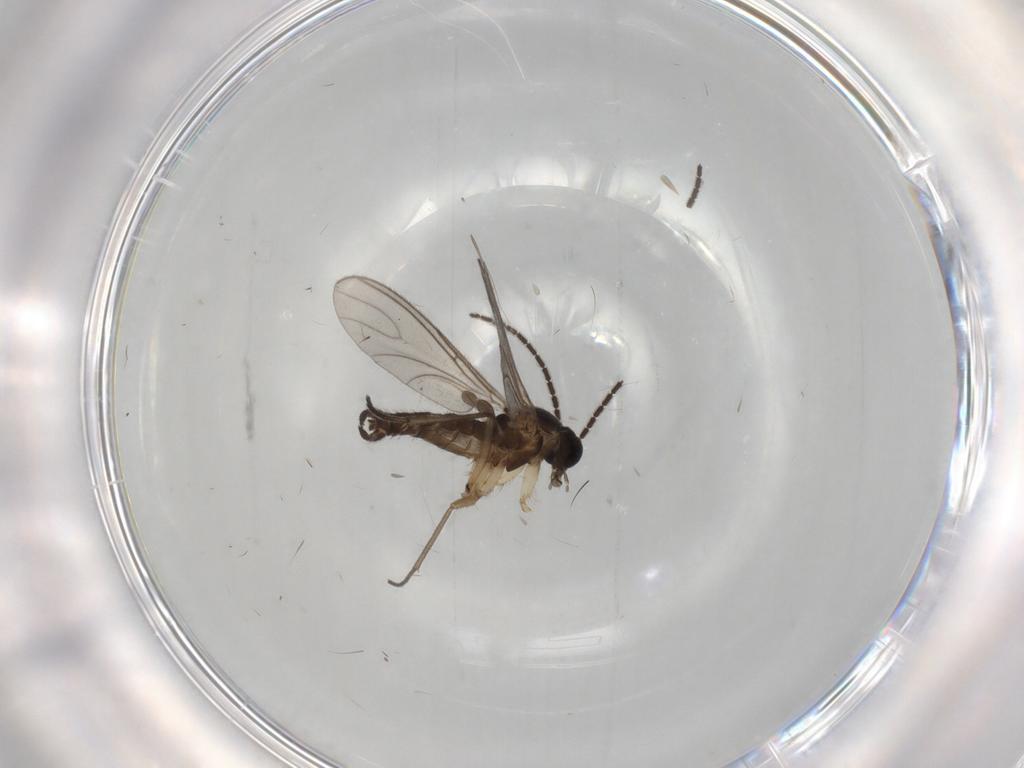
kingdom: Animalia
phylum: Arthropoda
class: Insecta
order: Diptera
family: Sciaridae
